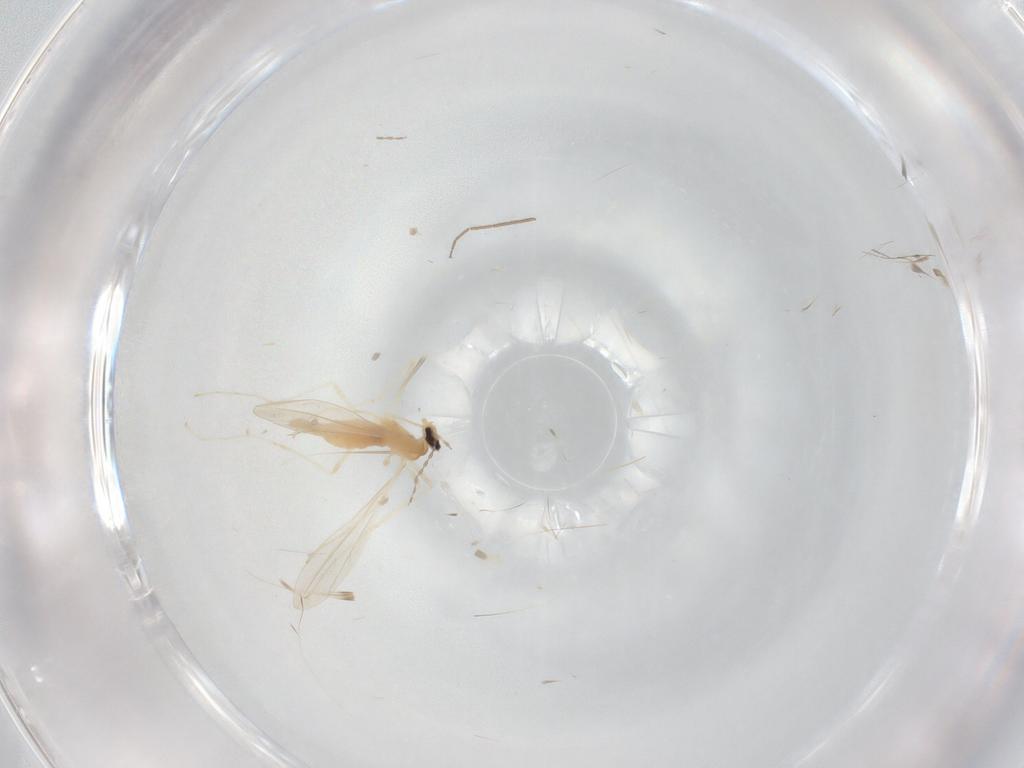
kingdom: Animalia
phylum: Arthropoda
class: Insecta
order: Diptera
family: Cecidomyiidae
